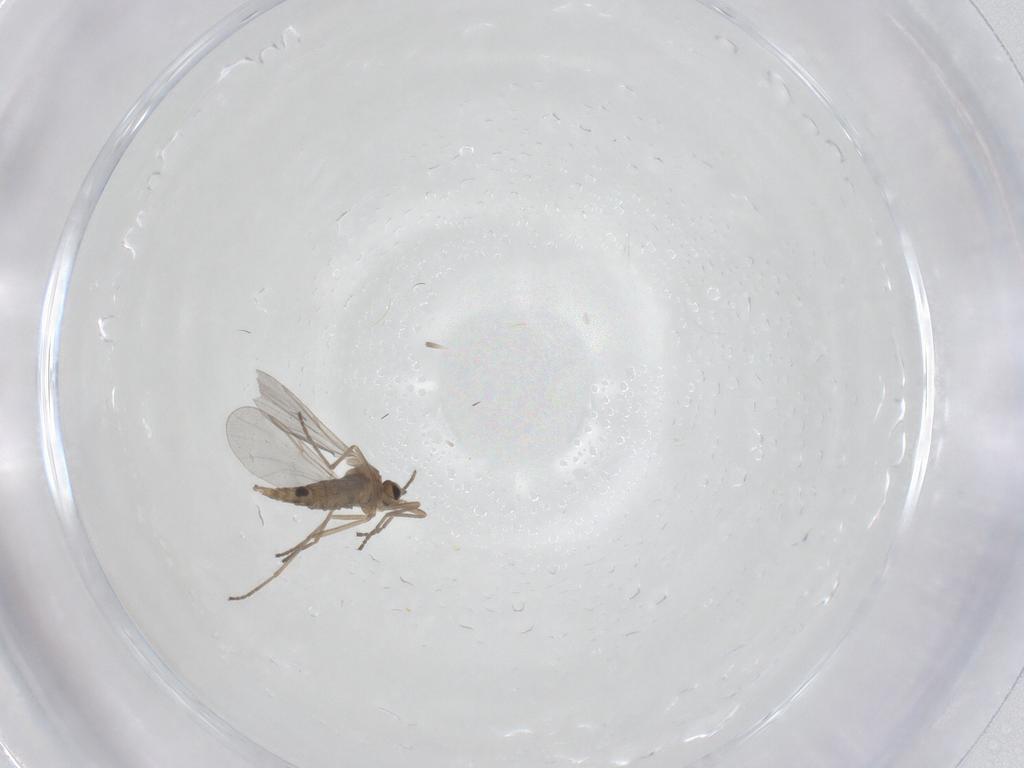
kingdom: Animalia
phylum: Arthropoda
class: Insecta
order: Diptera
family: Cecidomyiidae
